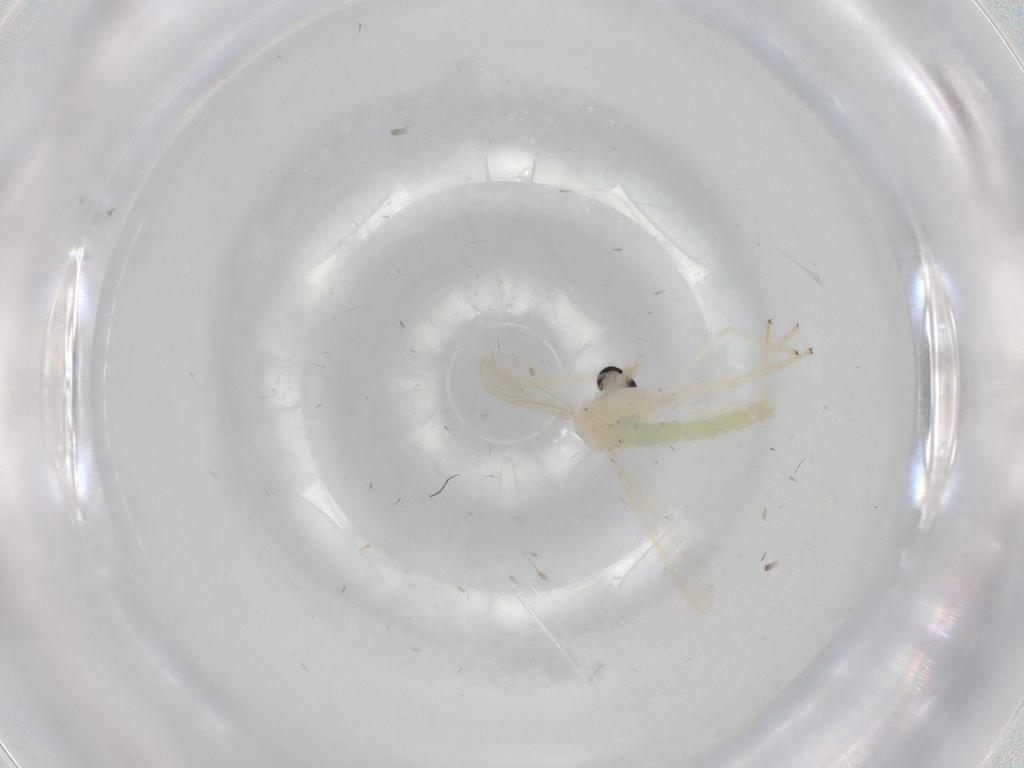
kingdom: Animalia
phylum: Arthropoda
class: Insecta
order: Diptera
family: Chironomidae
